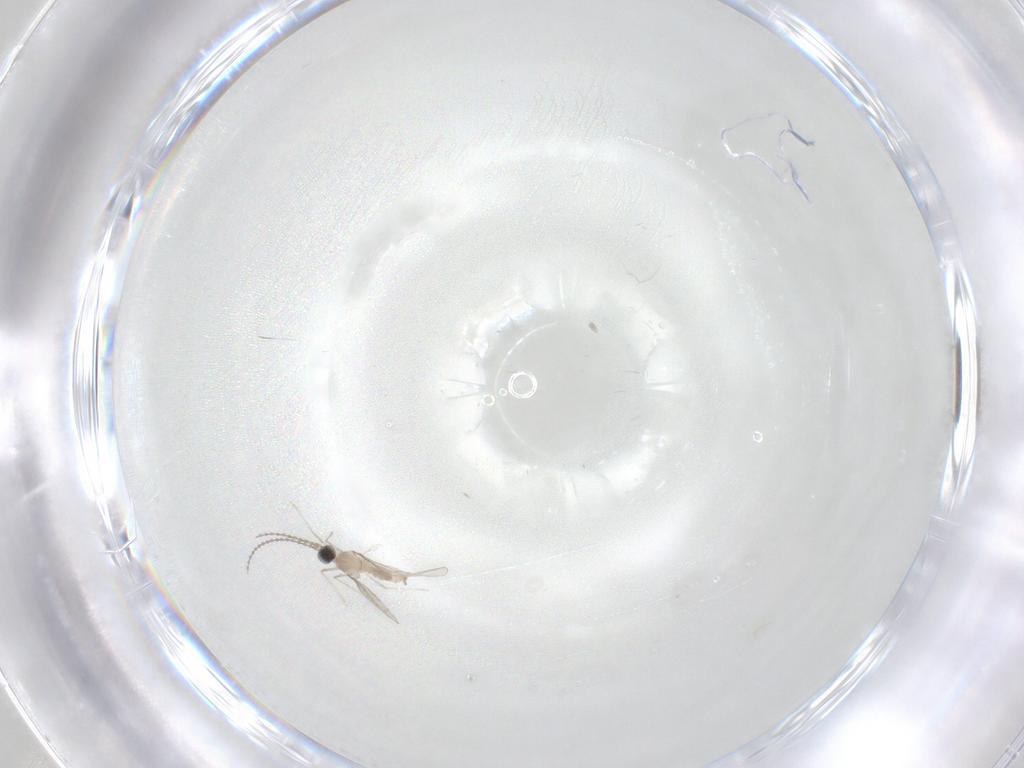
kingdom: Animalia
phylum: Arthropoda
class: Insecta
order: Diptera
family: Cecidomyiidae
